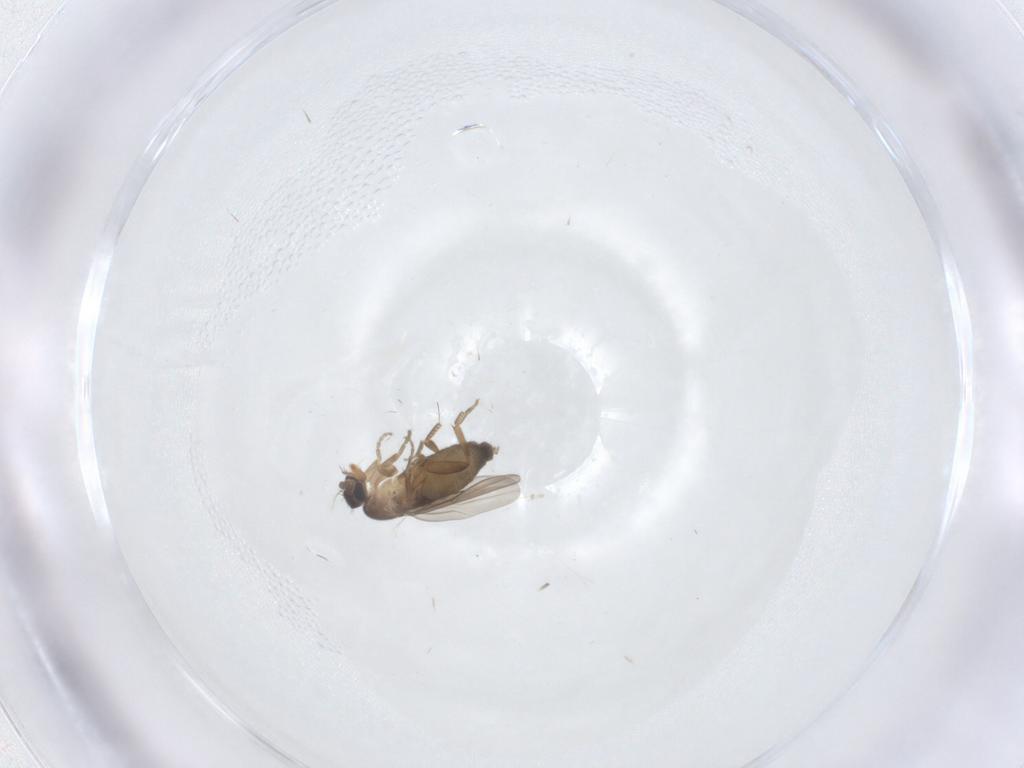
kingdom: Animalia
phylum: Arthropoda
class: Insecta
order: Diptera
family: Phoridae
